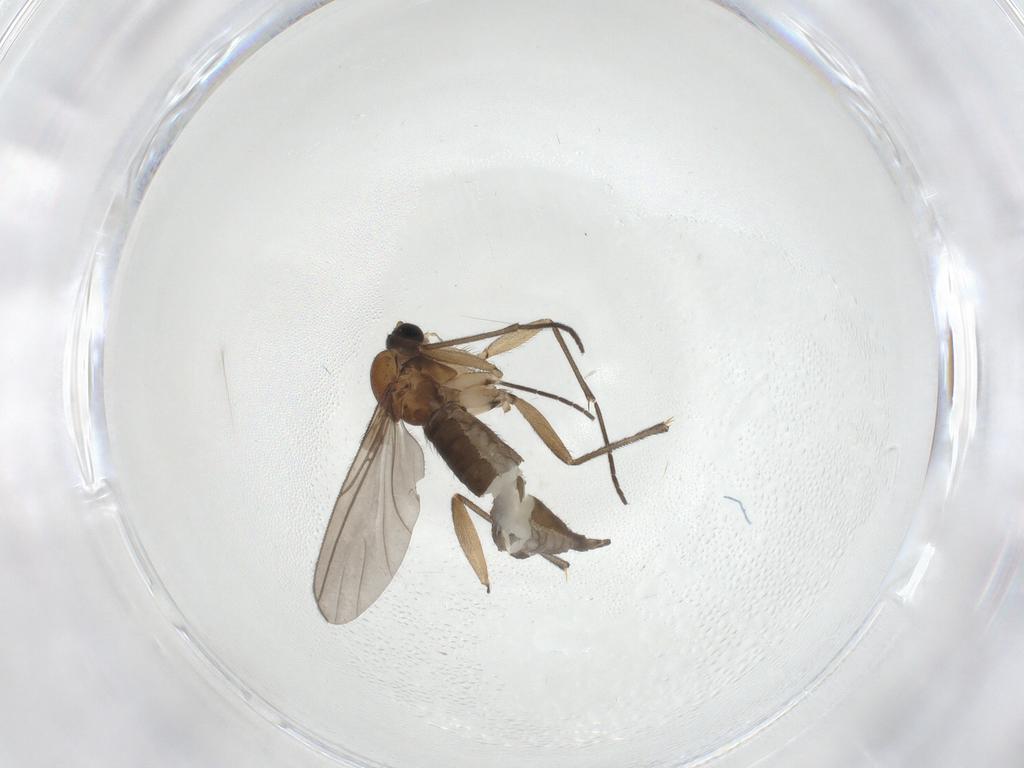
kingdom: Animalia
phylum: Arthropoda
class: Insecta
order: Diptera
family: Sciaridae
